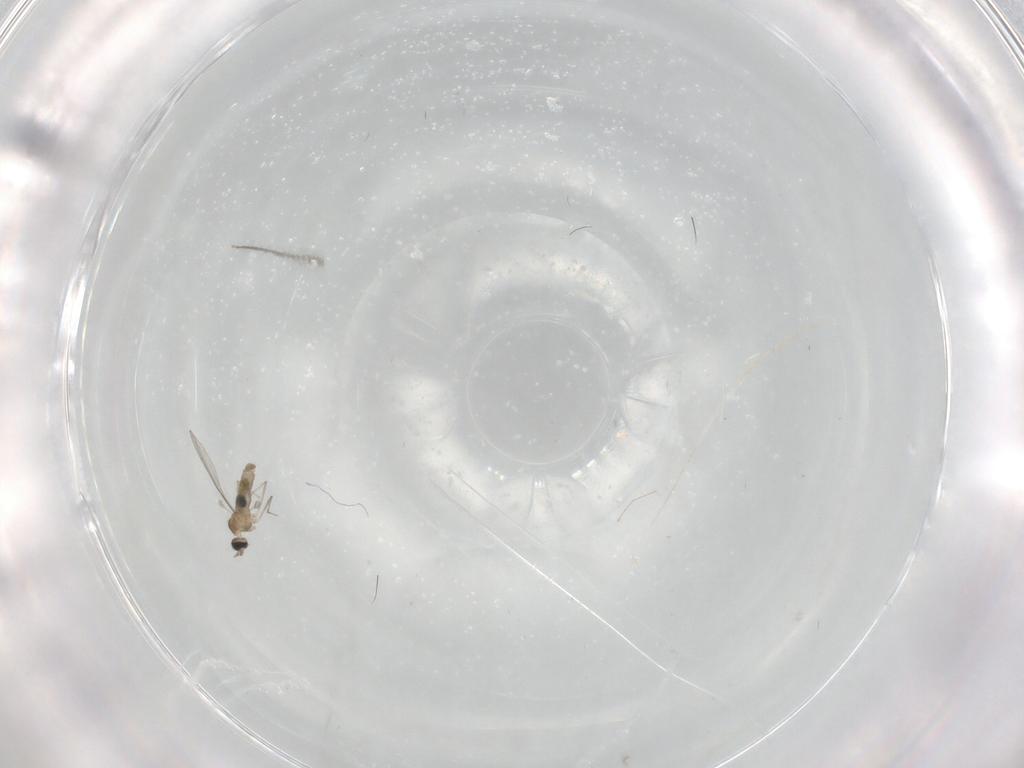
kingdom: Animalia
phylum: Arthropoda
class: Insecta
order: Diptera
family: Cecidomyiidae
